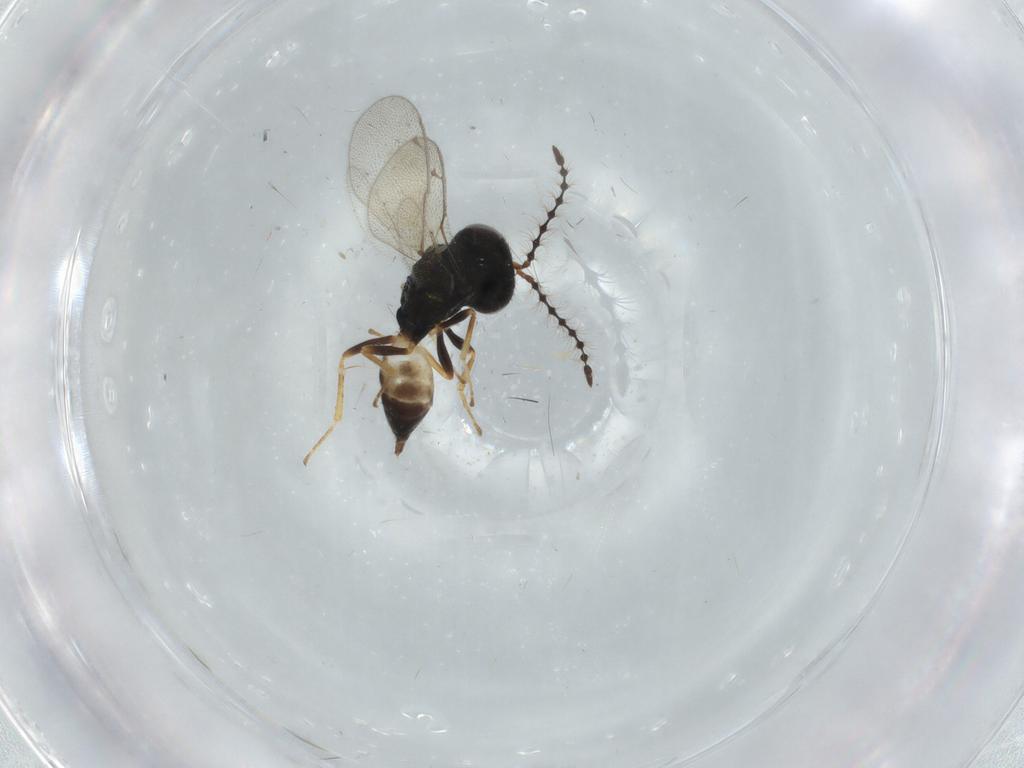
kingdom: Animalia
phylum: Arthropoda
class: Insecta
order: Hymenoptera
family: Pteromalidae
